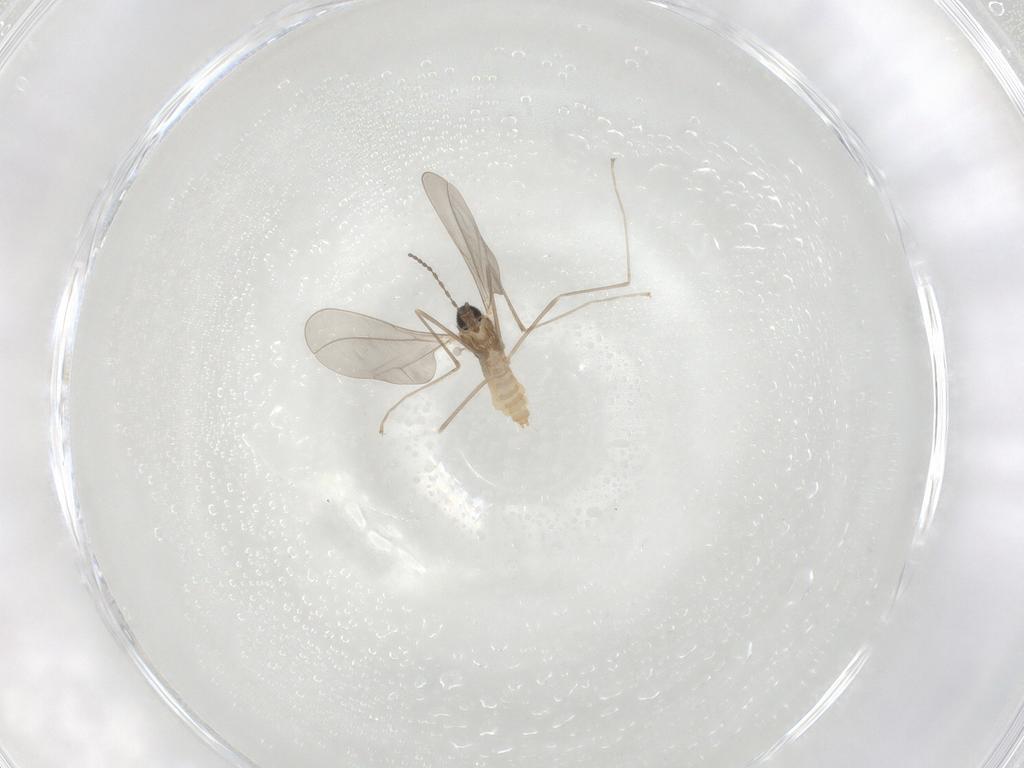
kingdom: Animalia
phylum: Arthropoda
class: Insecta
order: Diptera
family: Cecidomyiidae
